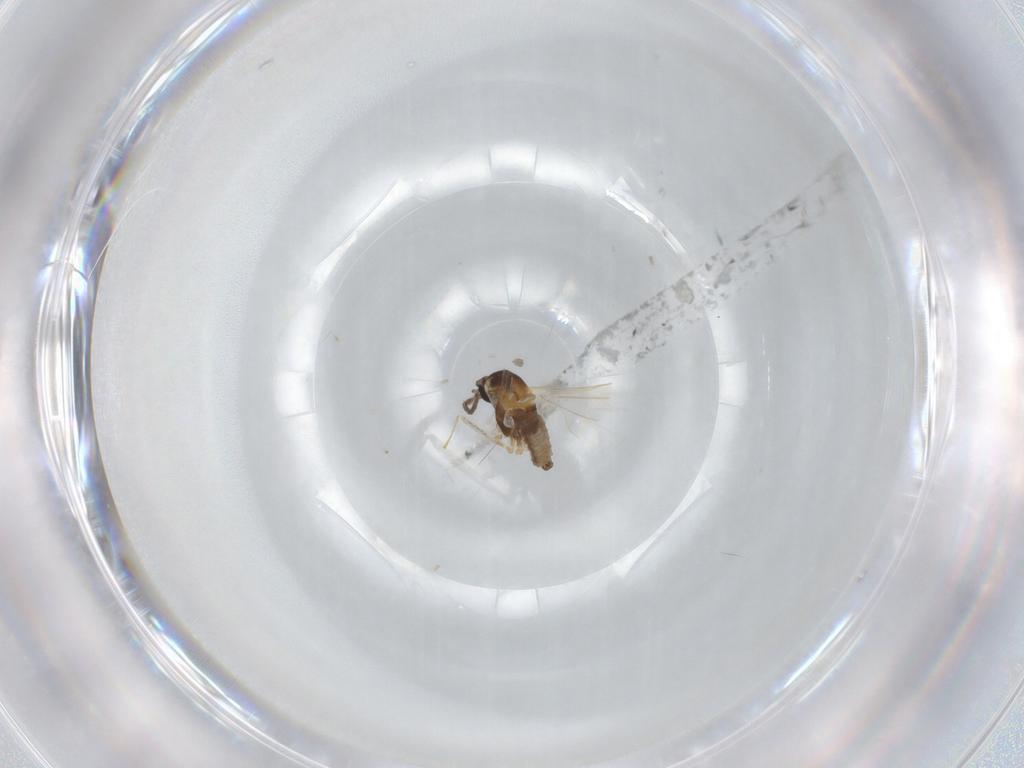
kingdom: Animalia
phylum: Arthropoda
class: Insecta
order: Diptera
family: Cecidomyiidae
